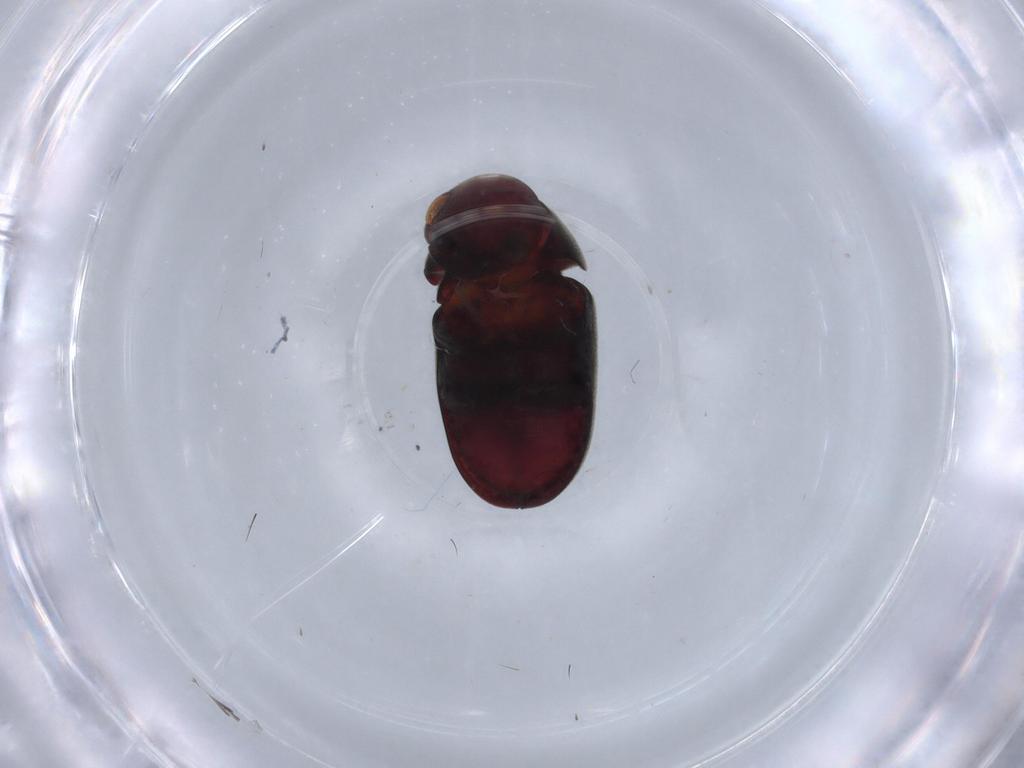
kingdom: Animalia
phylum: Arthropoda
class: Insecta
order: Coleoptera
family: Ptinidae
